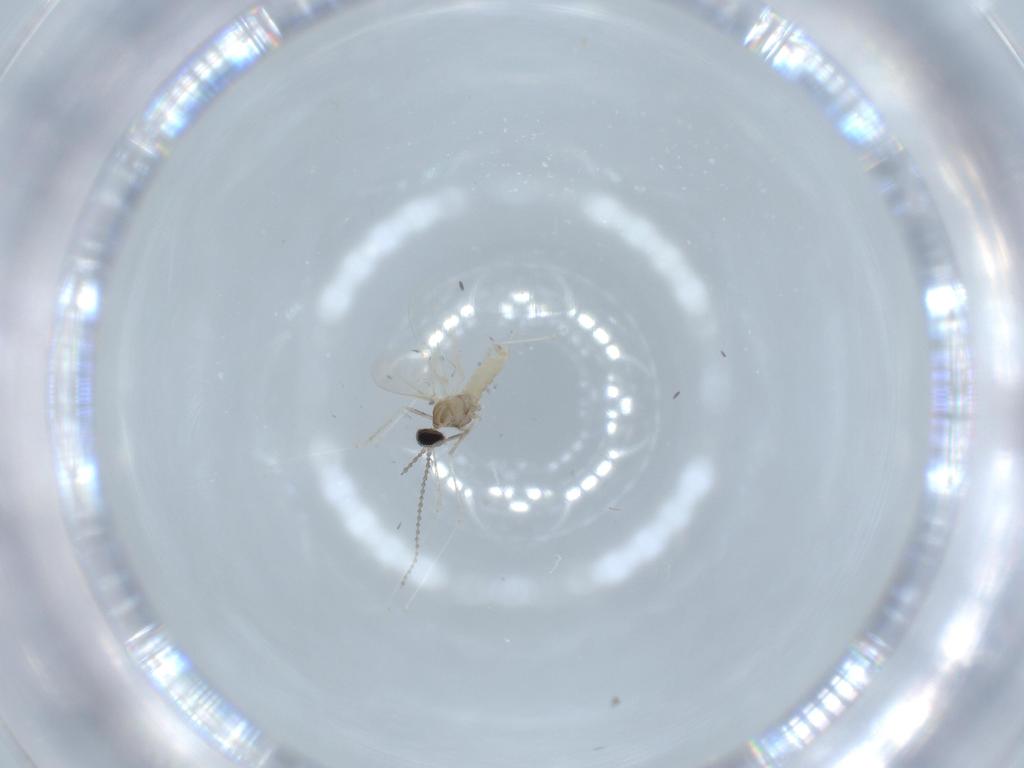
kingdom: Animalia
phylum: Arthropoda
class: Insecta
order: Diptera
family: Cecidomyiidae
